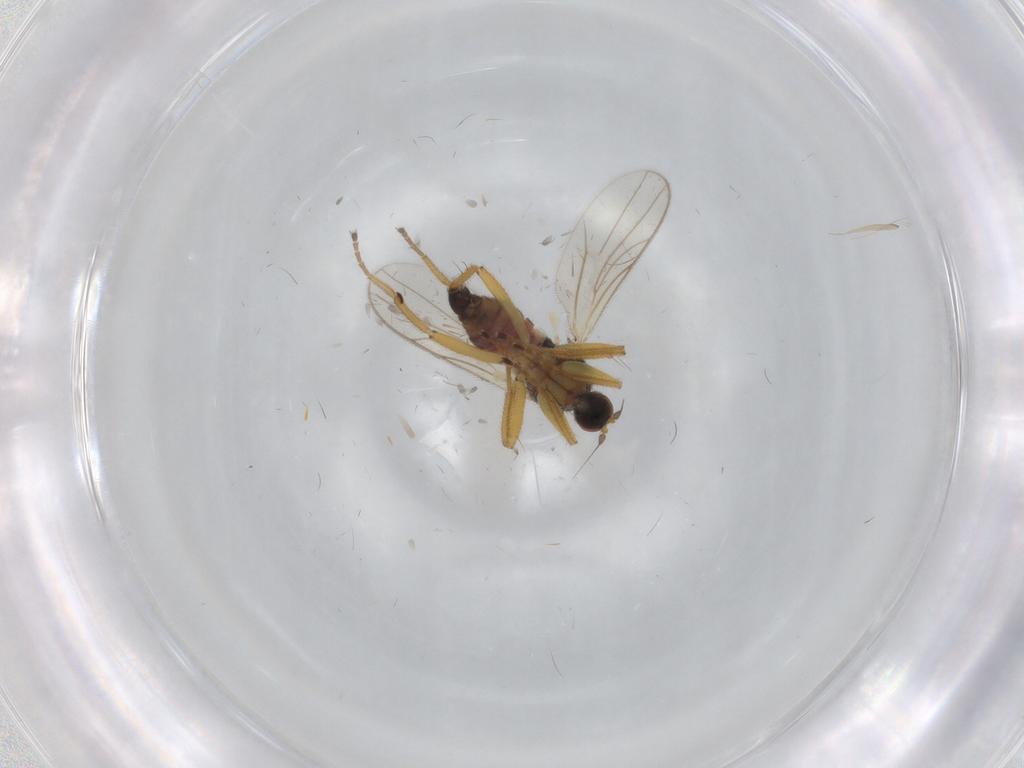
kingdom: Animalia
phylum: Arthropoda
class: Insecta
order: Diptera
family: Hybotidae
